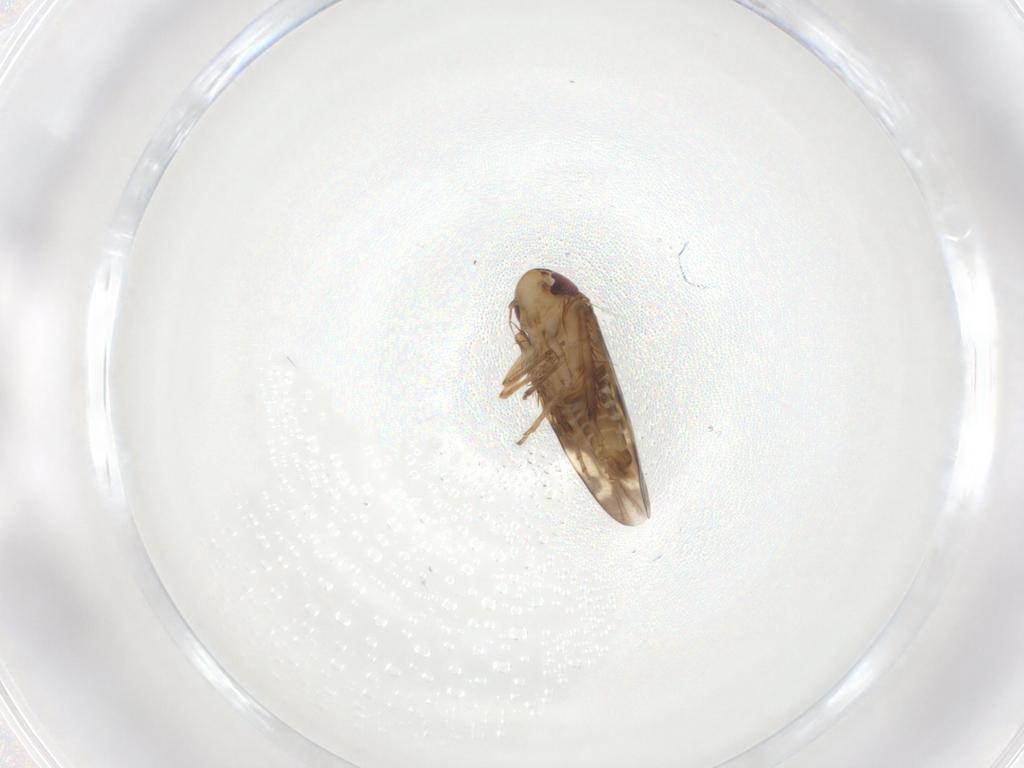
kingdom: Animalia
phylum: Arthropoda
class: Insecta
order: Hemiptera
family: Cicadellidae
